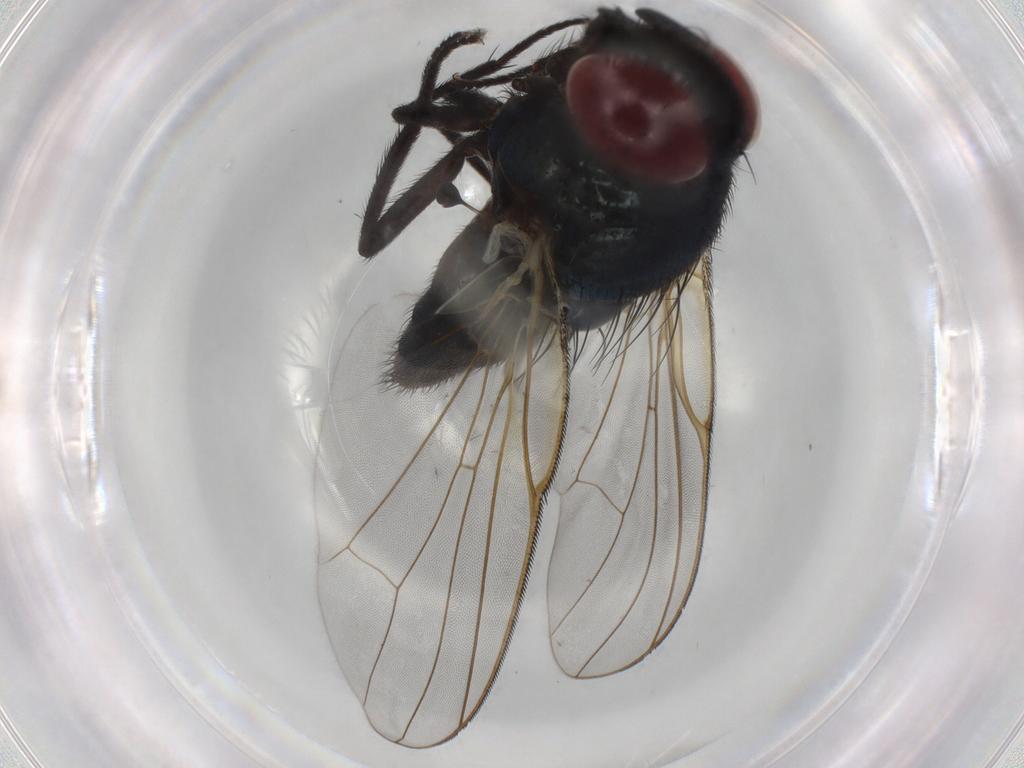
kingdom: Animalia
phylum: Arthropoda
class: Insecta
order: Diptera
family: Lonchaeidae
